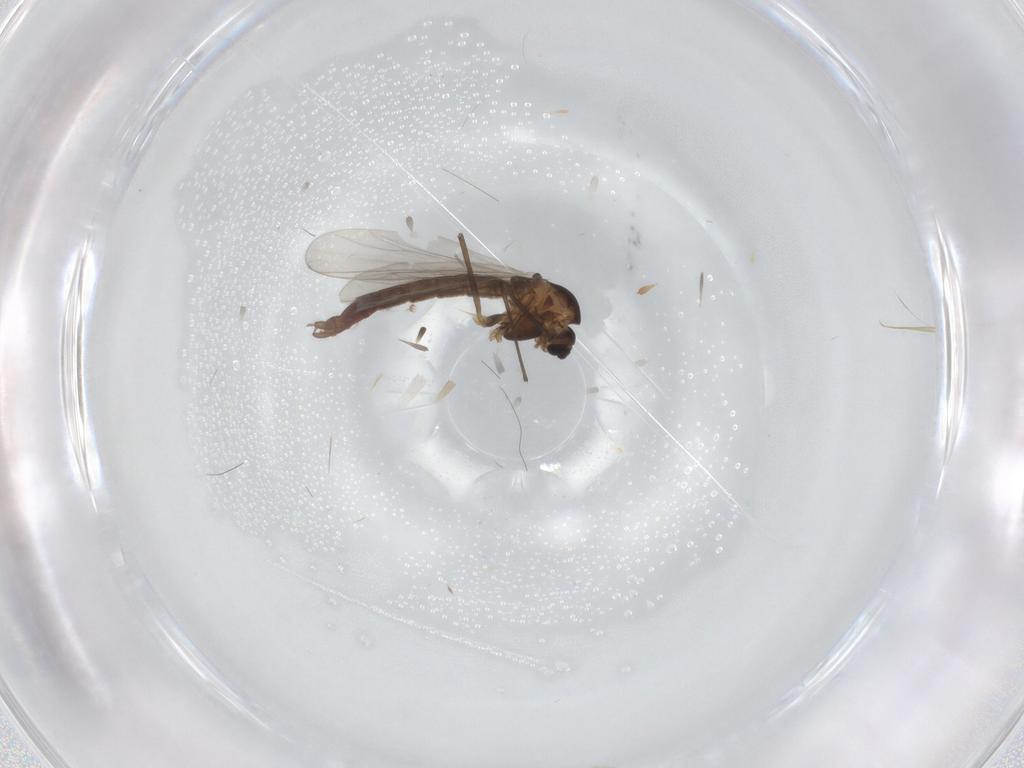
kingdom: Animalia
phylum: Arthropoda
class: Insecta
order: Diptera
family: Chironomidae
